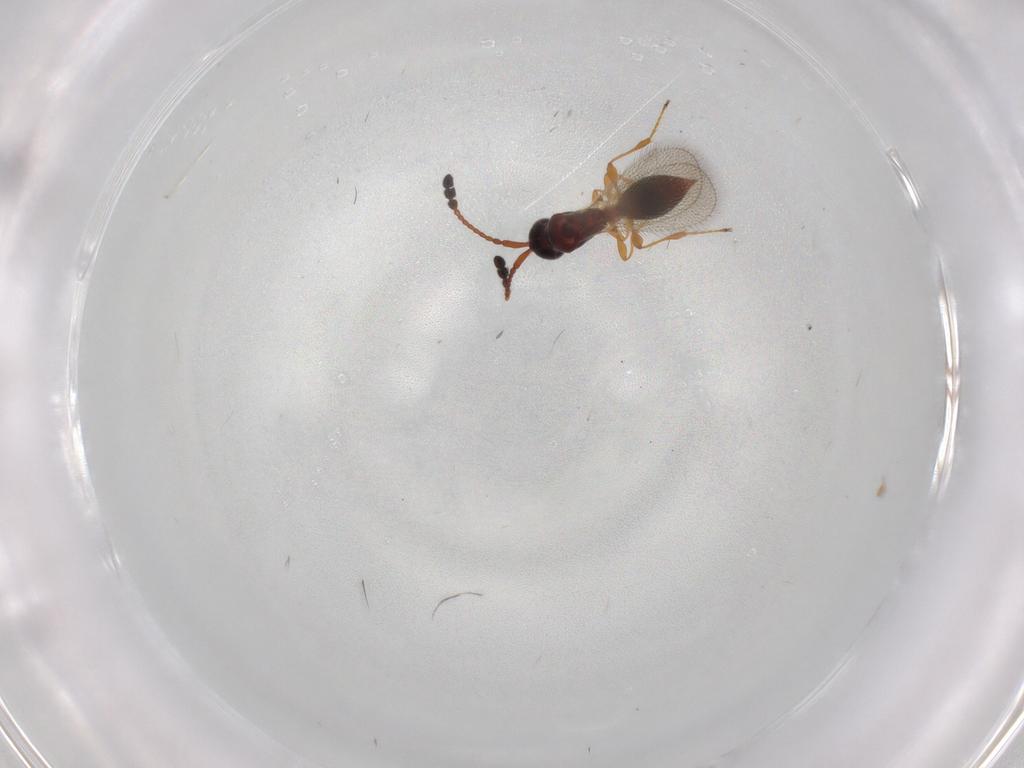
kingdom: Animalia
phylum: Arthropoda
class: Insecta
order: Hymenoptera
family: Diapriidae
